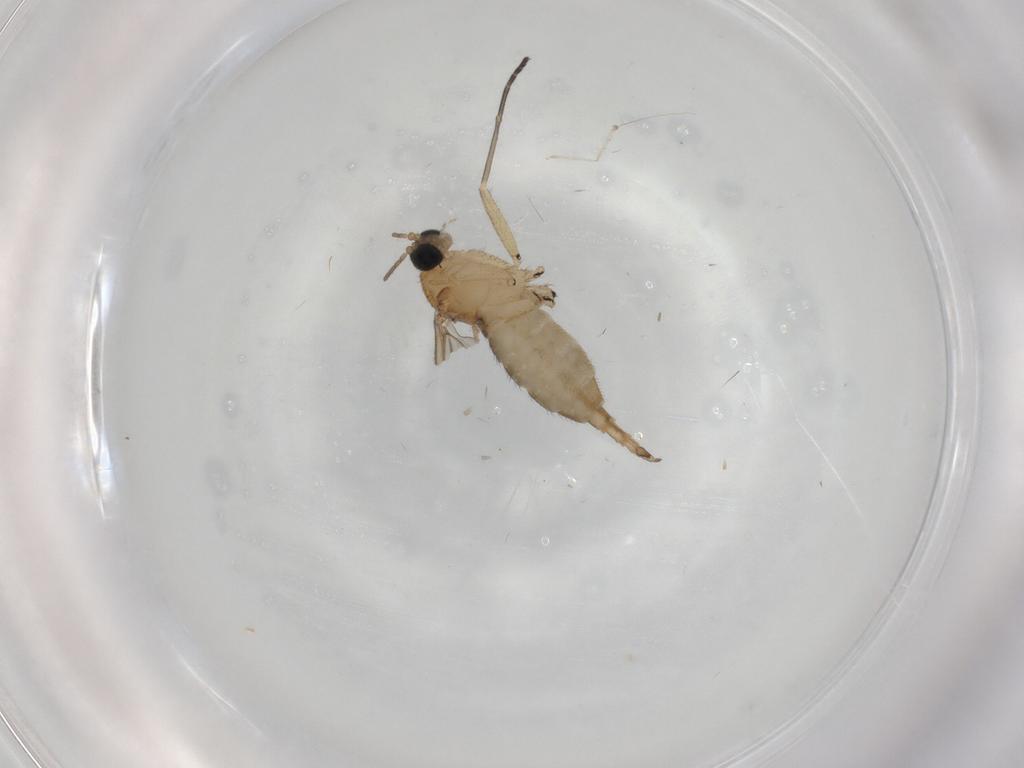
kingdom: Animalia
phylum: Arthropoda
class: Insecta
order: Diptera
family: Sciaridae
